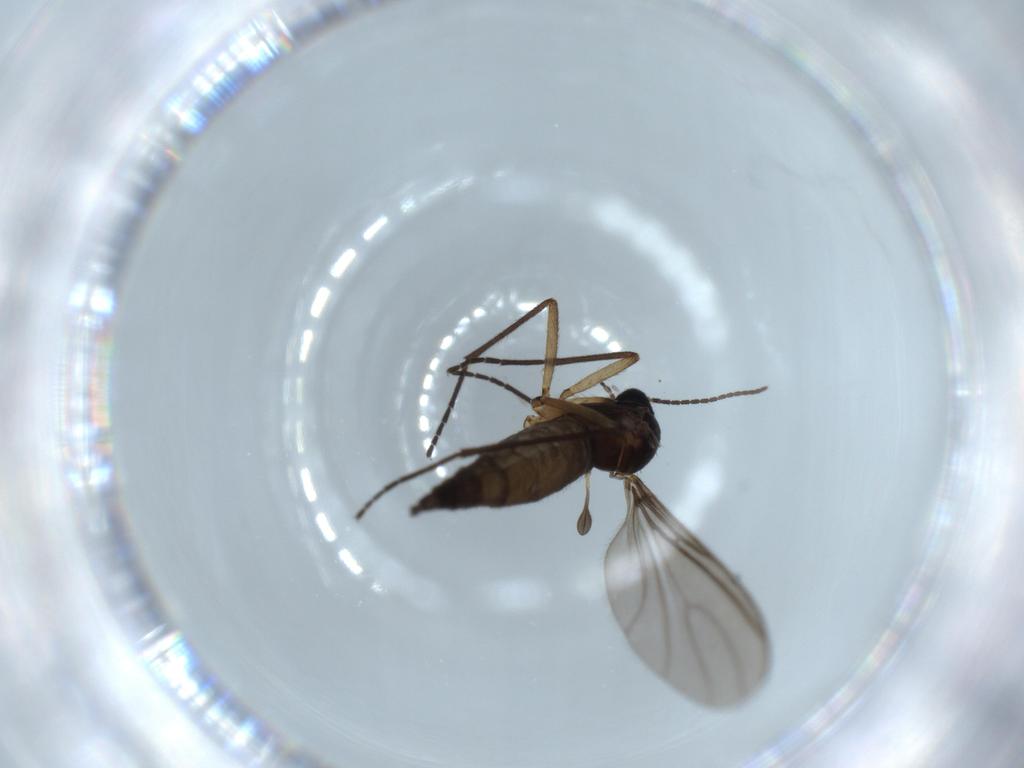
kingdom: Animalia
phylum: Arthropoda
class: Insecta
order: Diptera
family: Sciaridae
